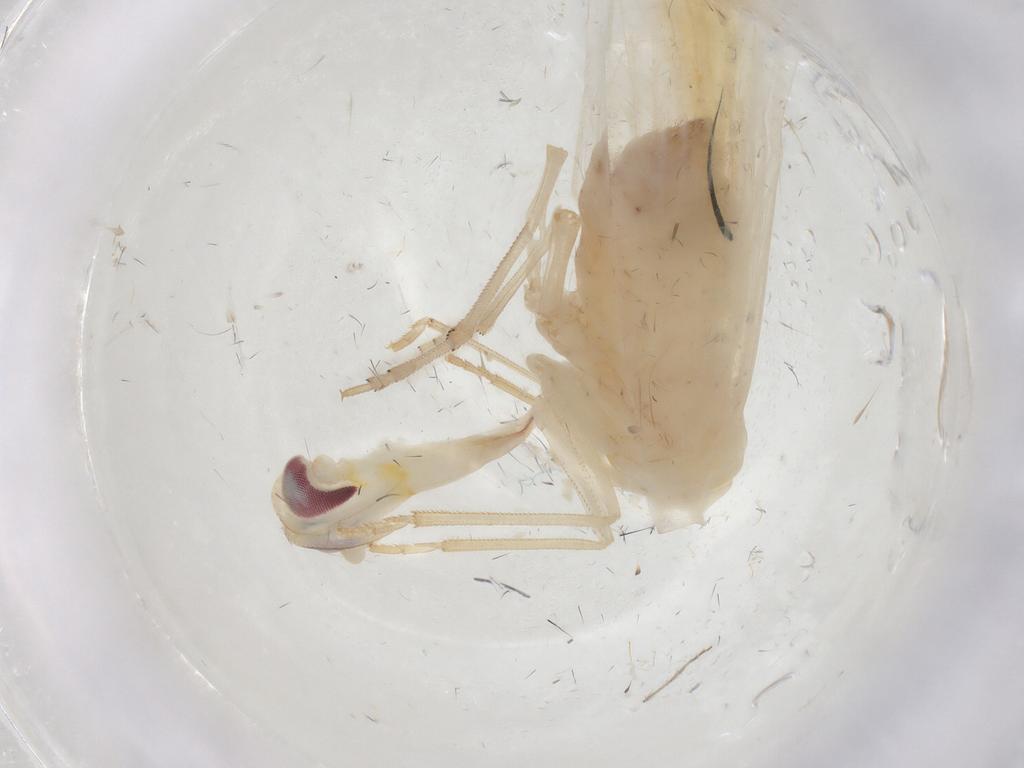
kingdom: Animalia
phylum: Arthropoda
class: Insecta
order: Hemiptera
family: Derbidae
